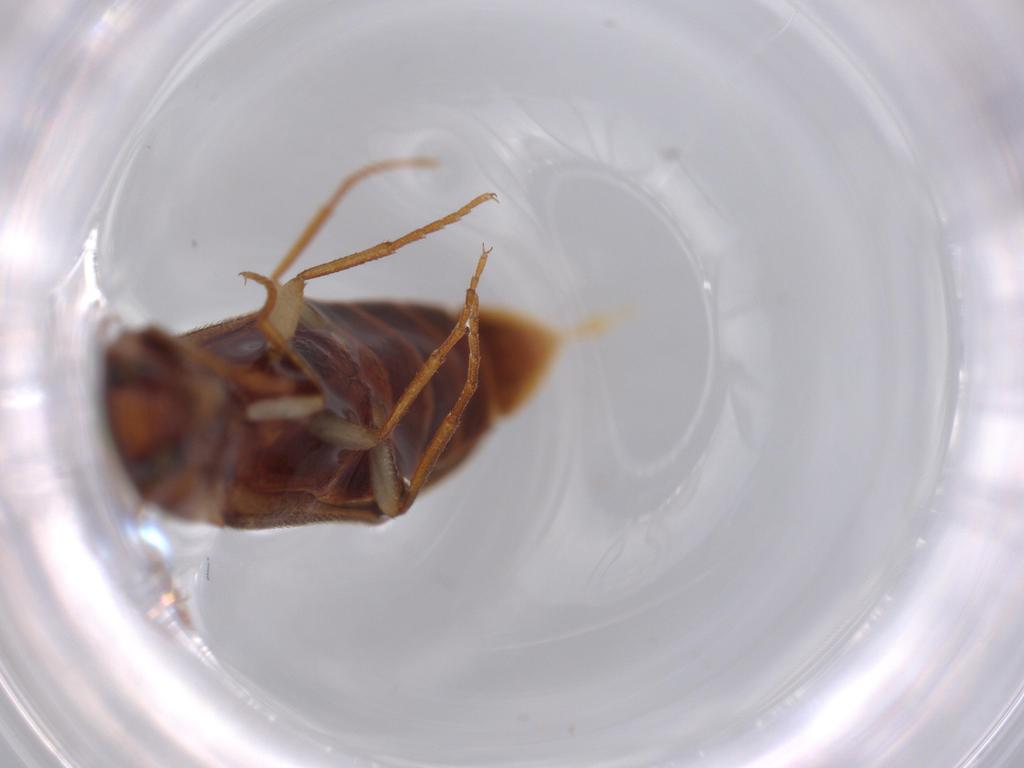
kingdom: Animalia
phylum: Arthropoda
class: Insecta
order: Coleoptera
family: Elateridae
